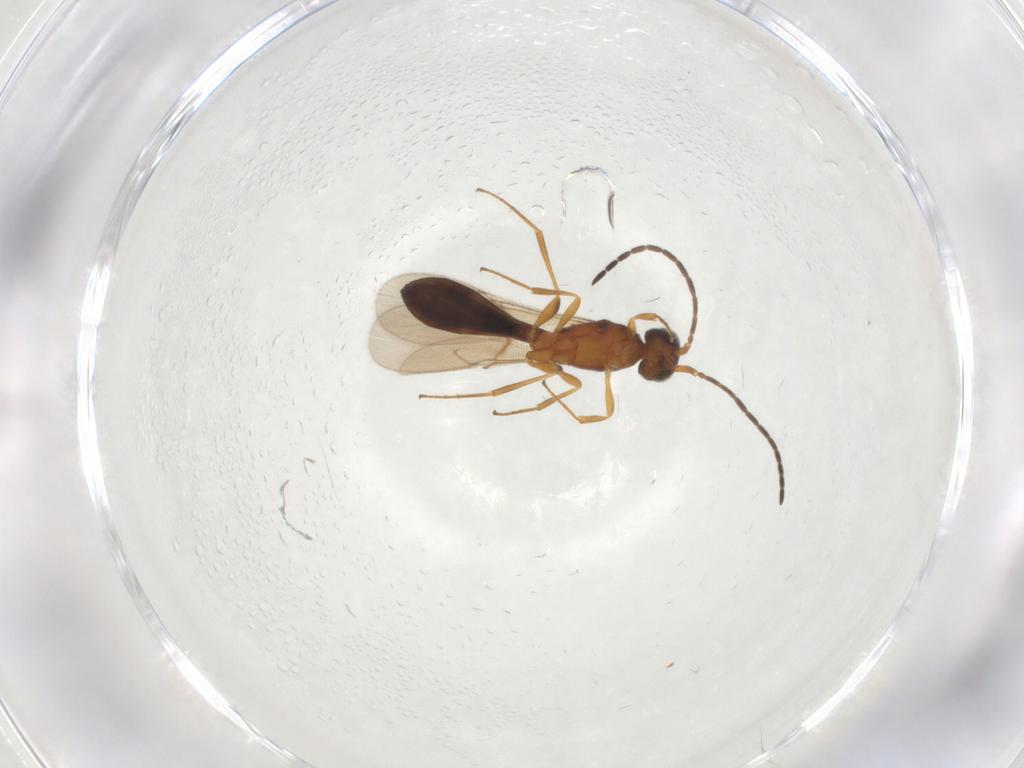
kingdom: Animalia
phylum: Arthropoda
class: Insecta
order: Hymenoptera
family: Scelionidae
